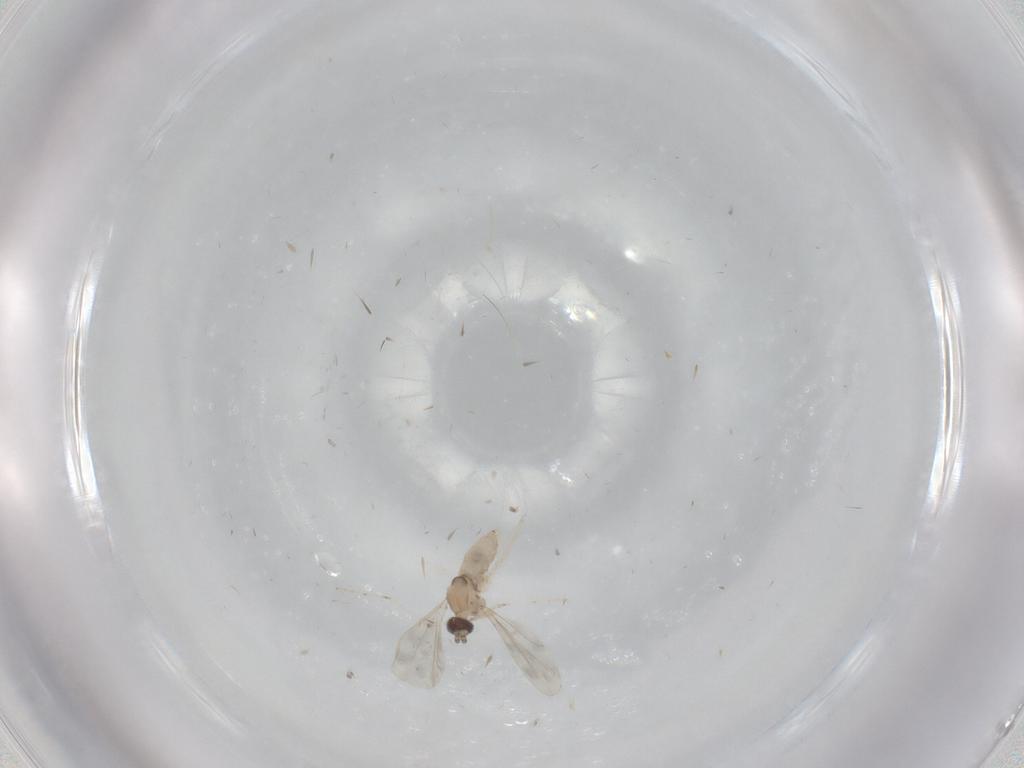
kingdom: Animalia
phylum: Arthropoda
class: Insecta
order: Diptera
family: Cecidomyiidae
